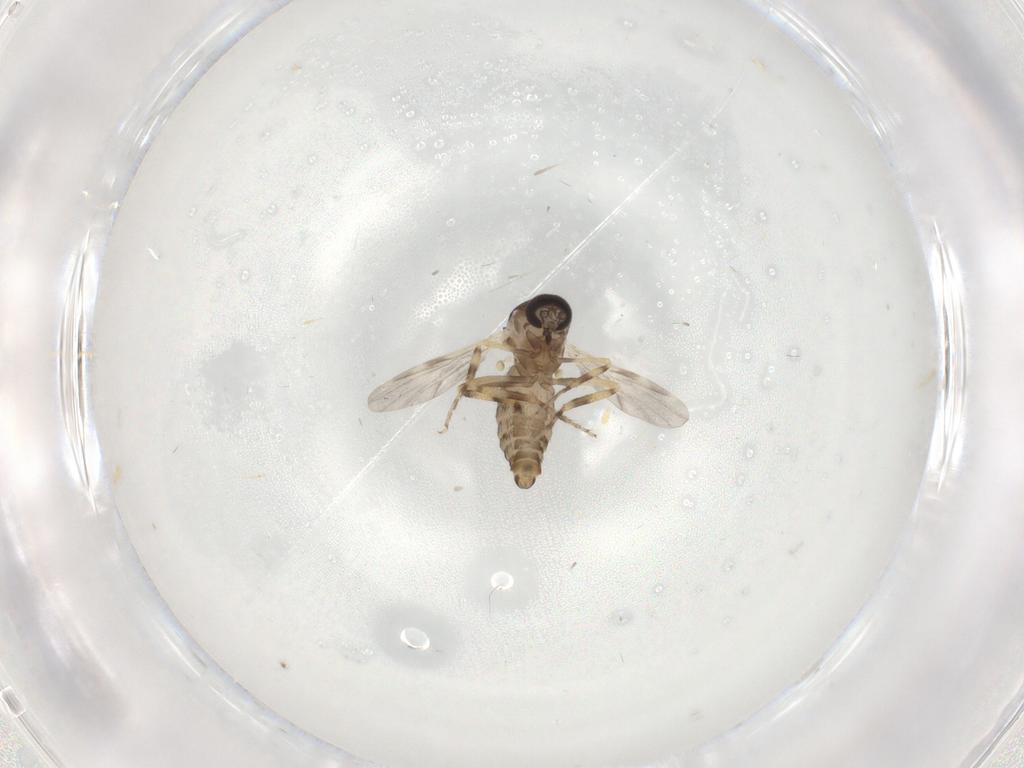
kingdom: Animalia
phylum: Arthropoda
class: Insecta
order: Diptera
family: Ceratopogonidae
